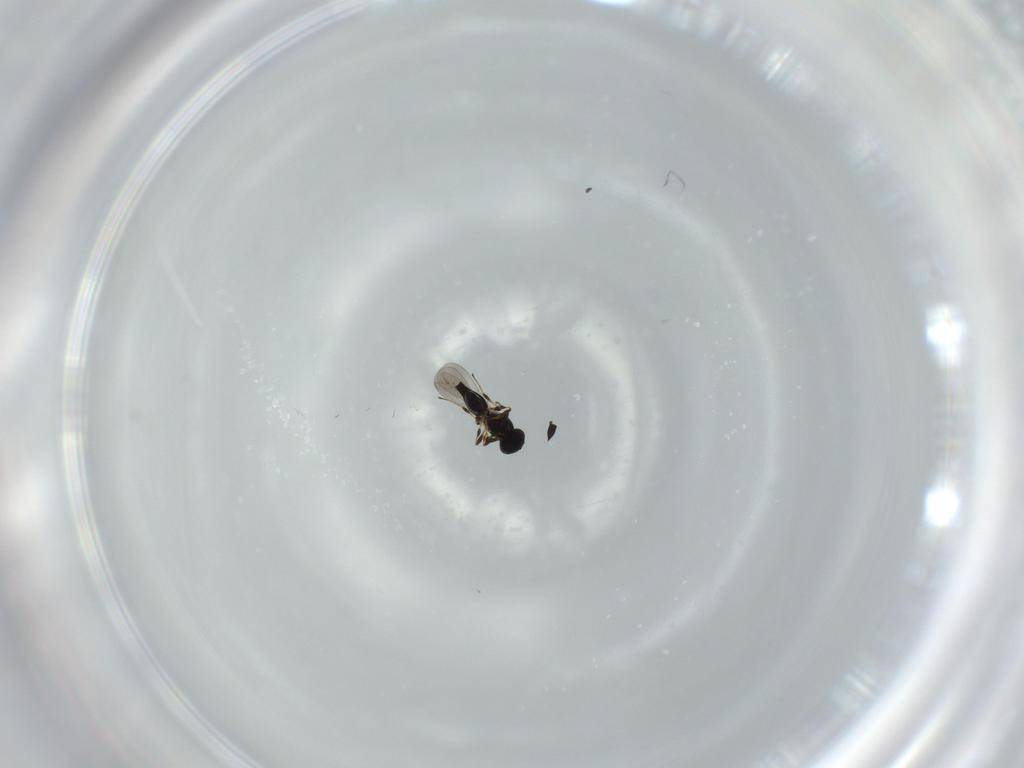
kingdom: Animalia
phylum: Arthropoda
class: Insecta
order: Hymenoptera
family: Platygastridae
